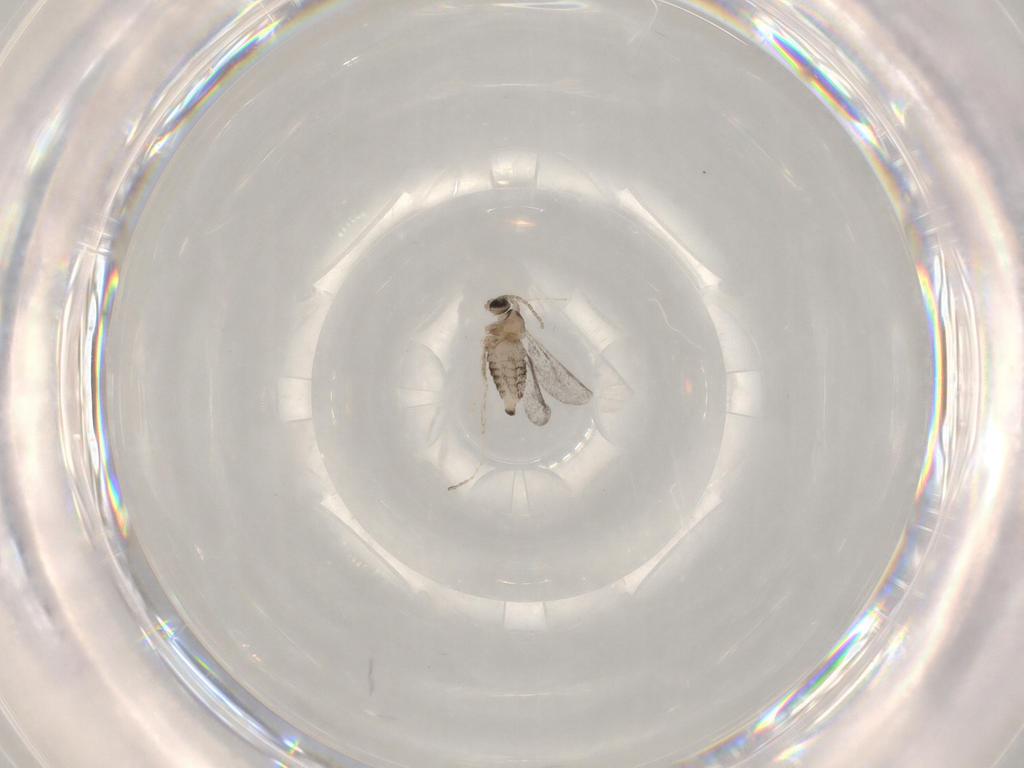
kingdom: Animalia
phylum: Arthropoda
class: Insecta
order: Diptera
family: Cecidomyiidae
